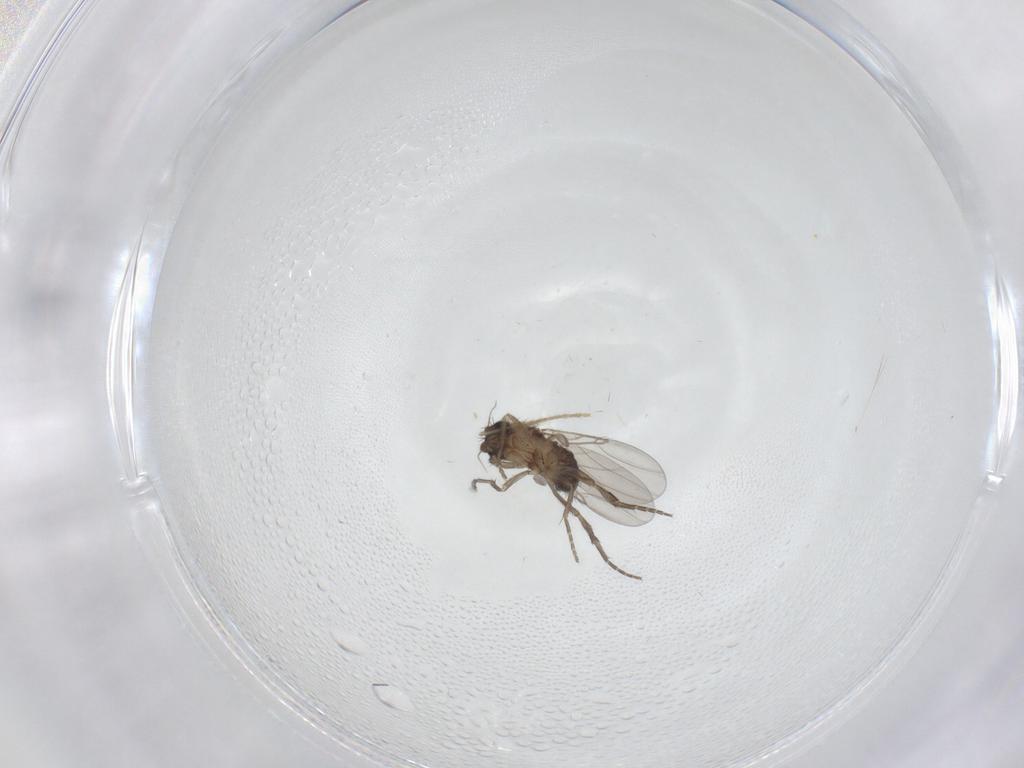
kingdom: Animalia
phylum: Arthropoda
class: Insecta
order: Diptera
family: Phoridae
